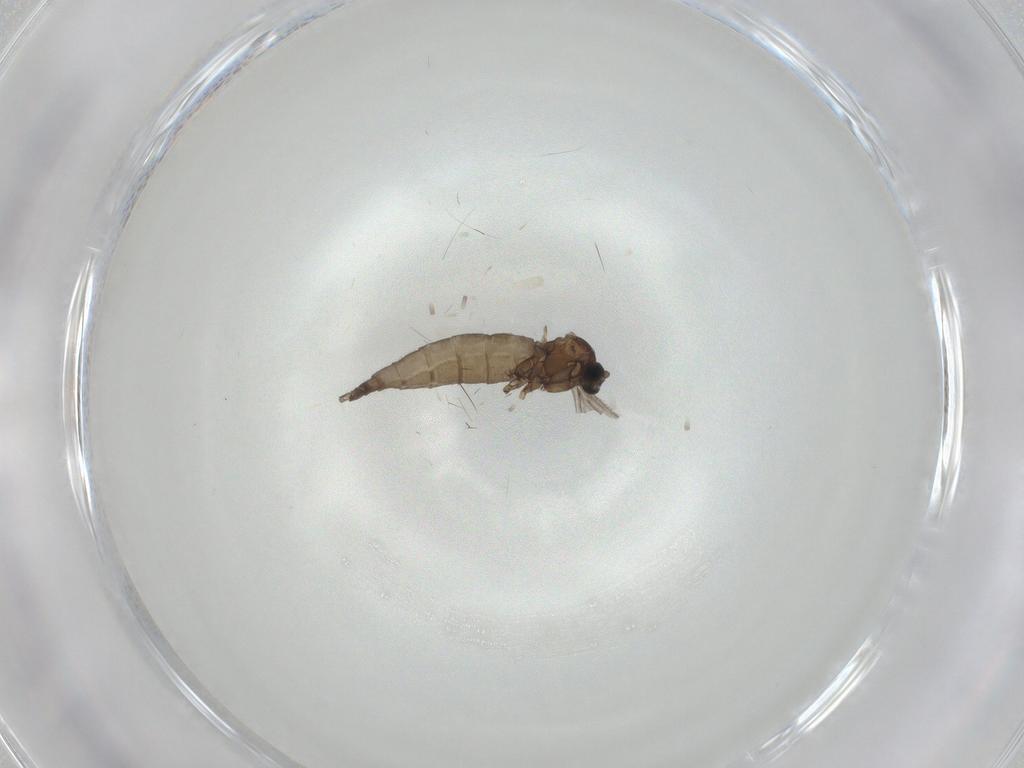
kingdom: Animalia
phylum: Arthropoda
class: Insecta
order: Diptera
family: Sciaridae
